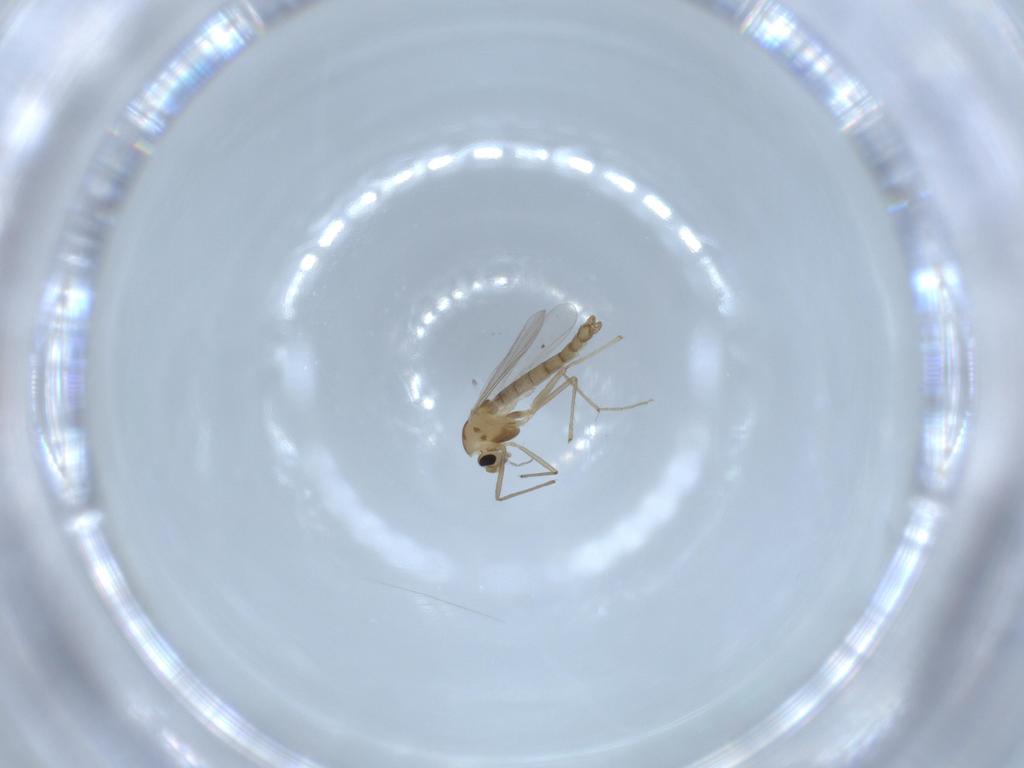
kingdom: Animalia
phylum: Arthropoda
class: Insecta
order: Diptera
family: Chironomidae
